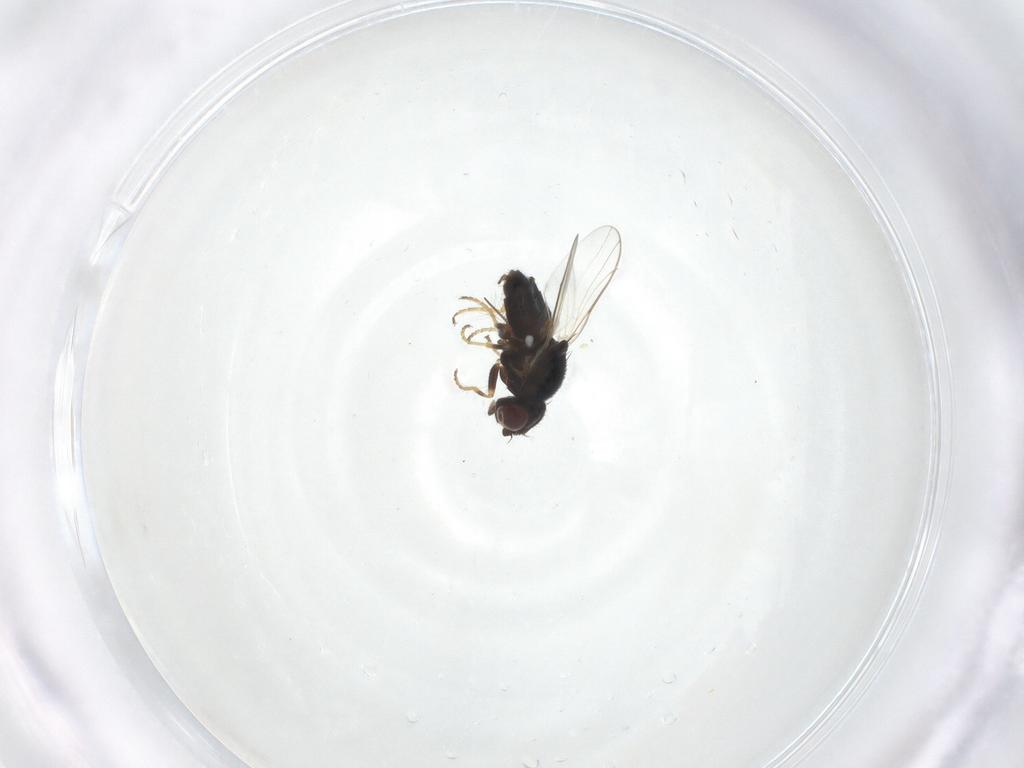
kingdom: Animalia
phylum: Arthropoda
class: Insecta
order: Diptera
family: Chloropidae
